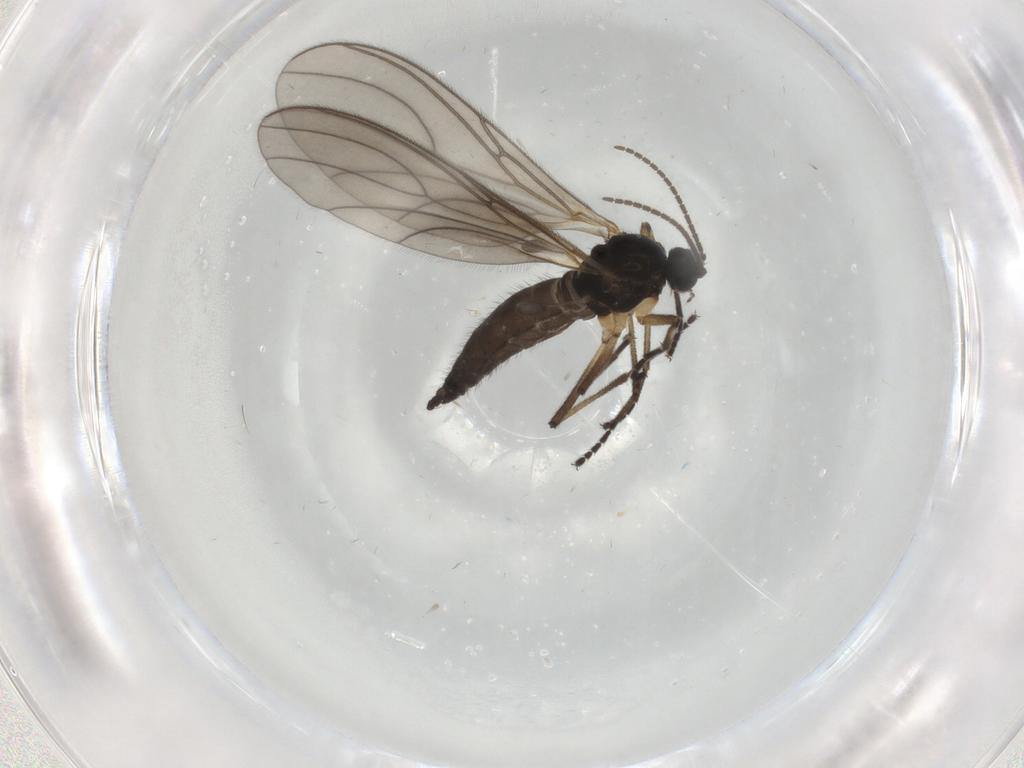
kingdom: Animalia
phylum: Arthropoda
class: Insecta
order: Diptera
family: Sciaridae
